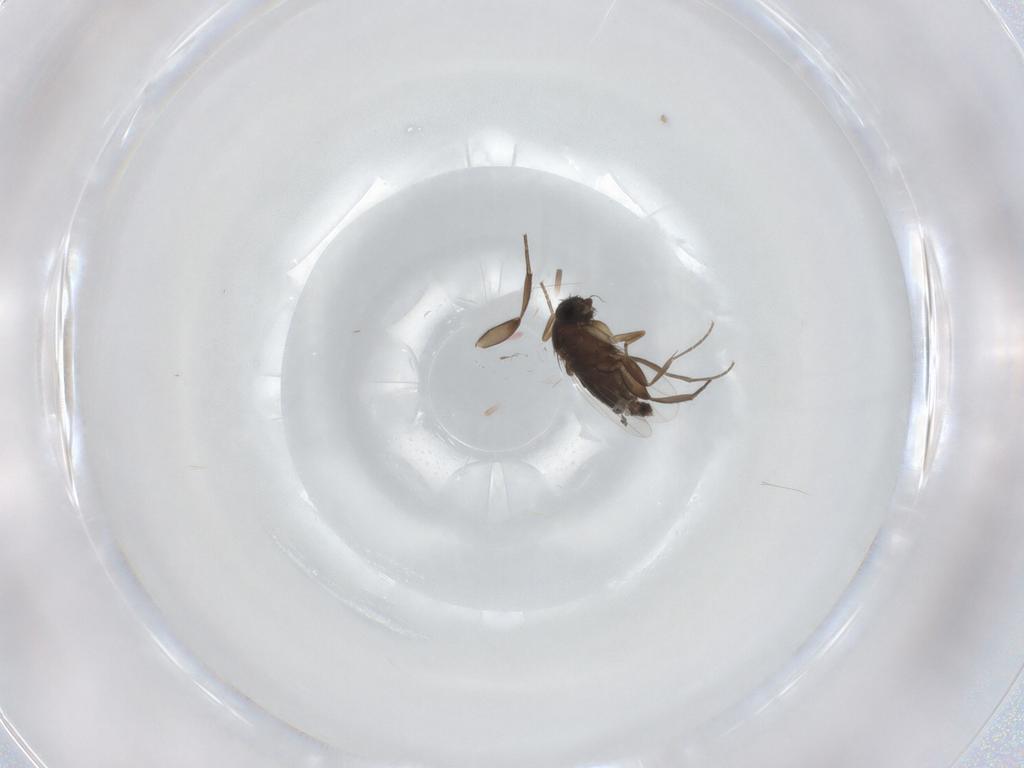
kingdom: Animalia
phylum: Arthropoda
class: Insecta
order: Diptera
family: Phoridae
